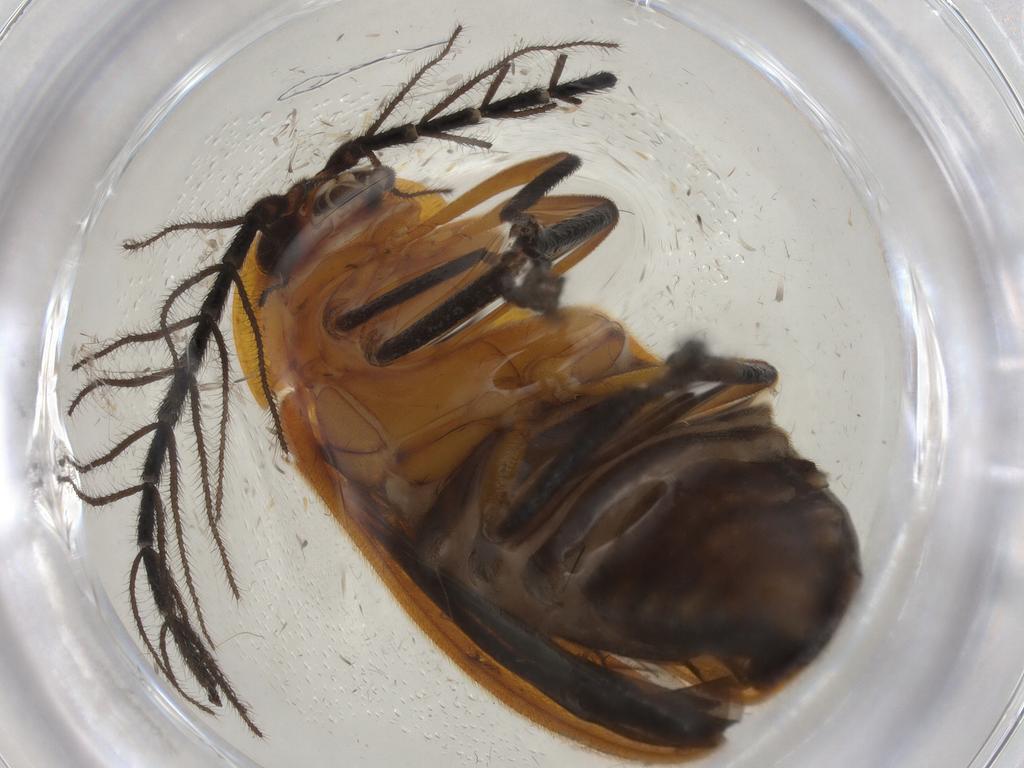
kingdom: Animalia
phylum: Arthropoda
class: Insecta
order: Coleoptera
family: Lampyridae
